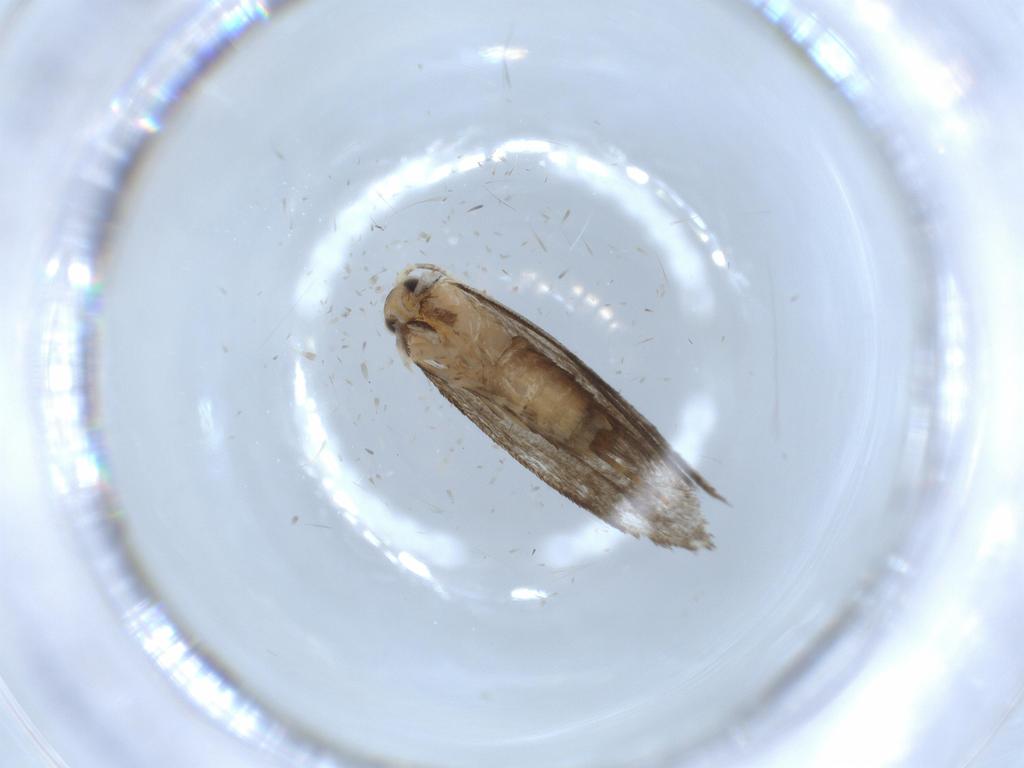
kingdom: Animalia
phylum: Arthropoda
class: Insecta
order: Lepidoptera
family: Tineidae
